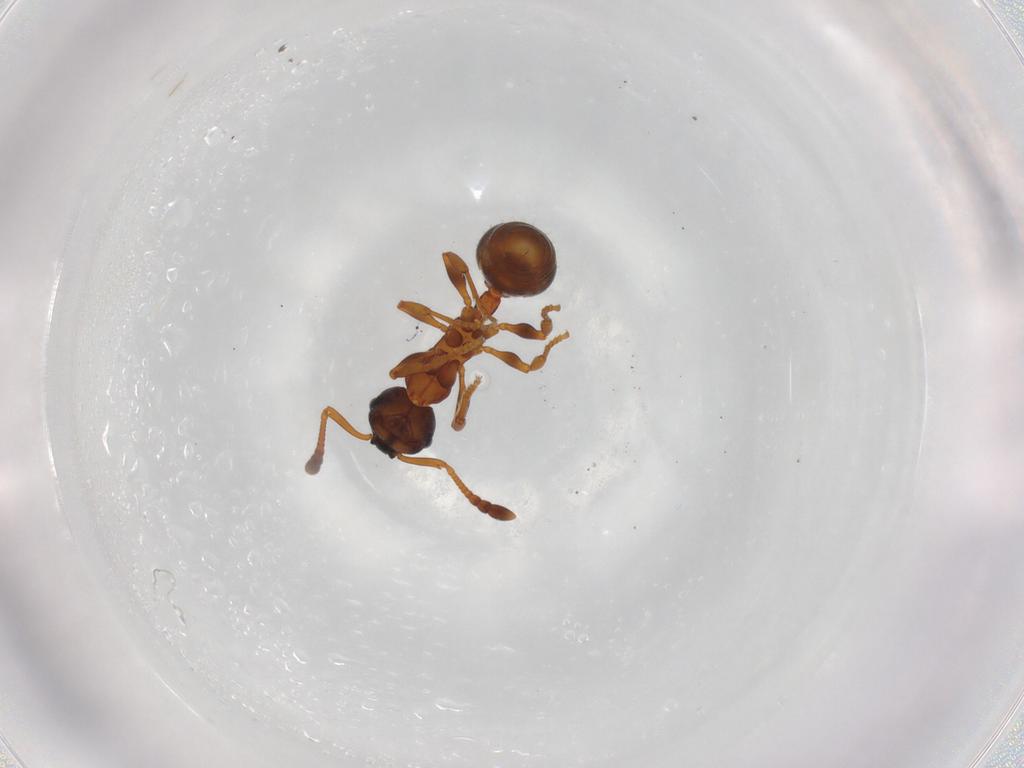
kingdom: Animalia
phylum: Arthropoda
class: Insecta
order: Hymenoptera
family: Formicidae
